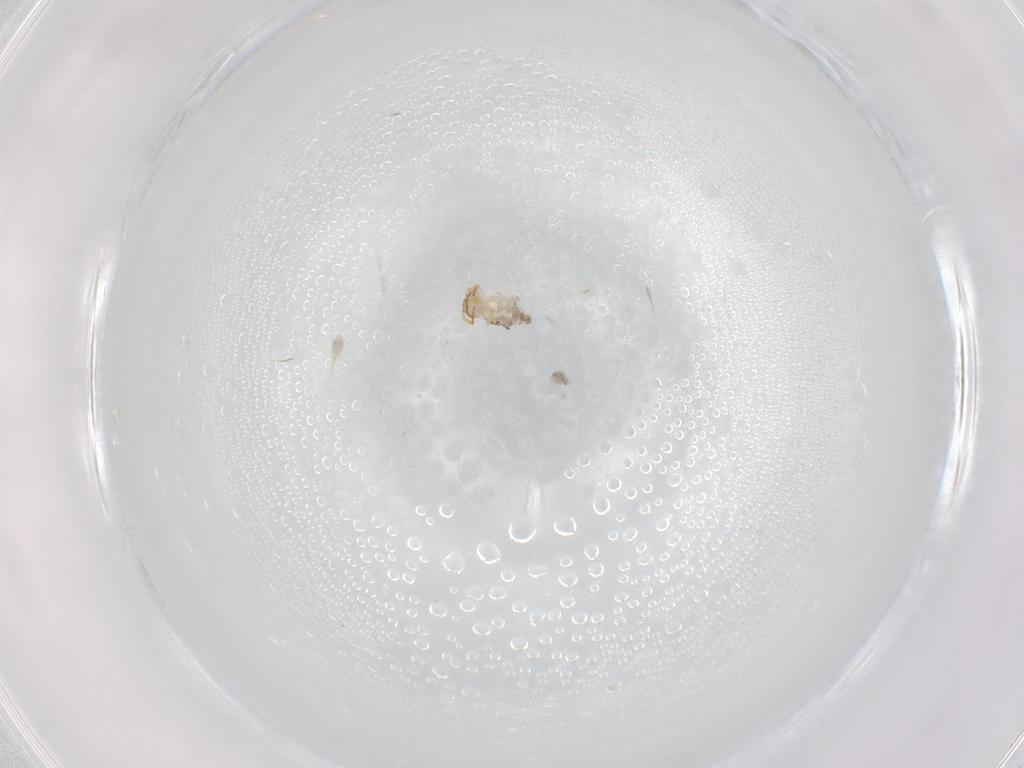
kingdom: Animalia
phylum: Arthropoda
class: Collembola
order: Symphypleona
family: Bourletiellidae
